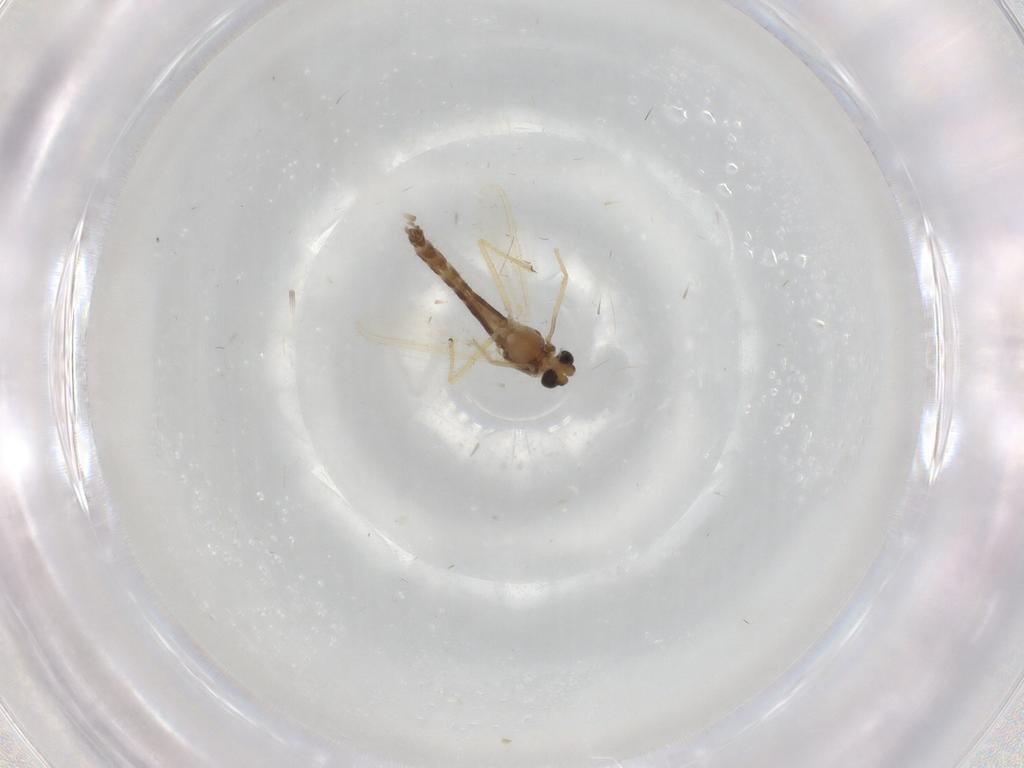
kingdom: Animalia
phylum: Arthropoda
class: Insecta
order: Diptera
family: Chironomidae
